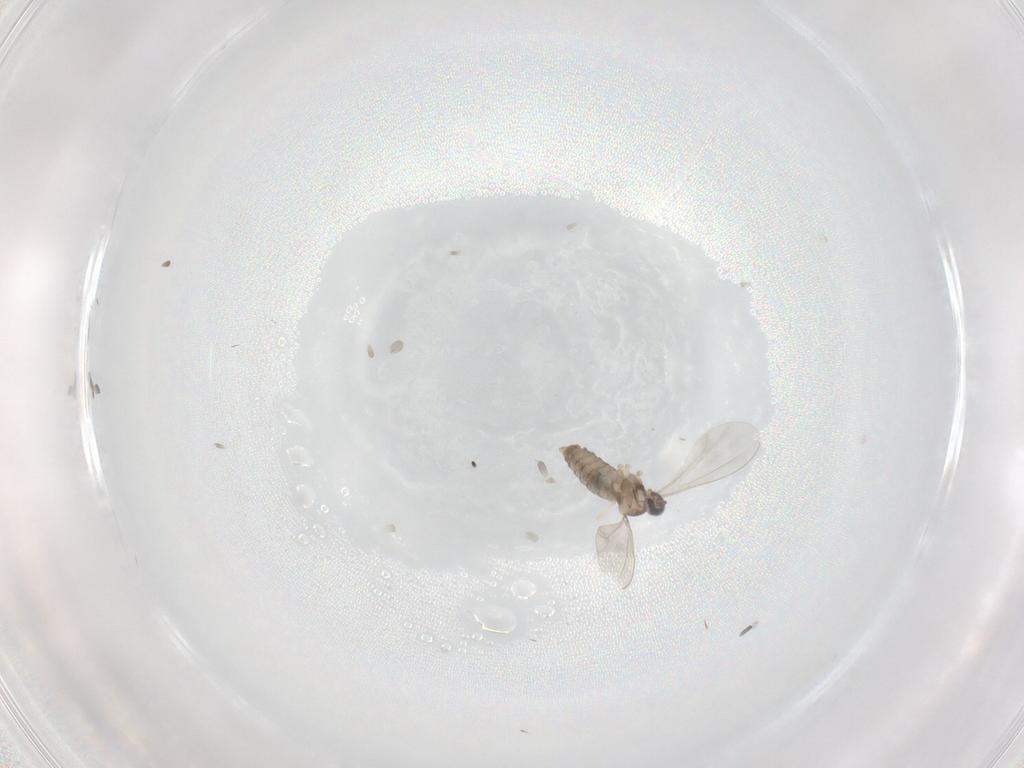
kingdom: Animalia
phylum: Arthropoda
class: Insecta
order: Diptera
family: Cecidomyiidae
